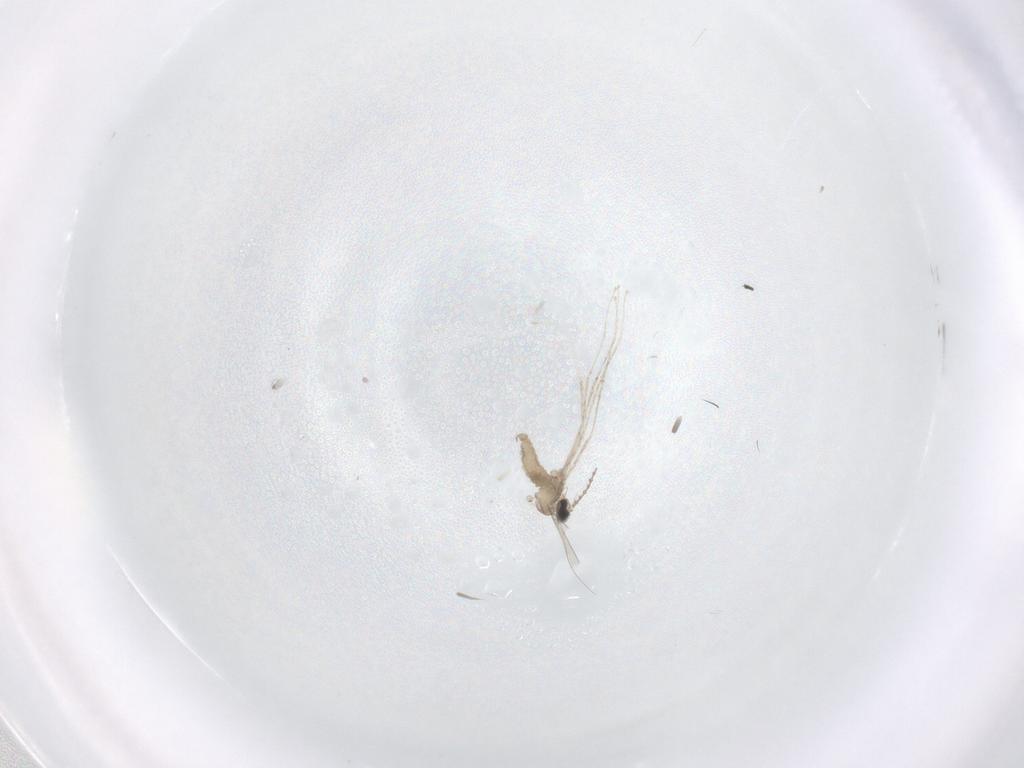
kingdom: Animalia
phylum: Arthropoda
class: Insecta
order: Diptera
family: Cecidomyiidae
